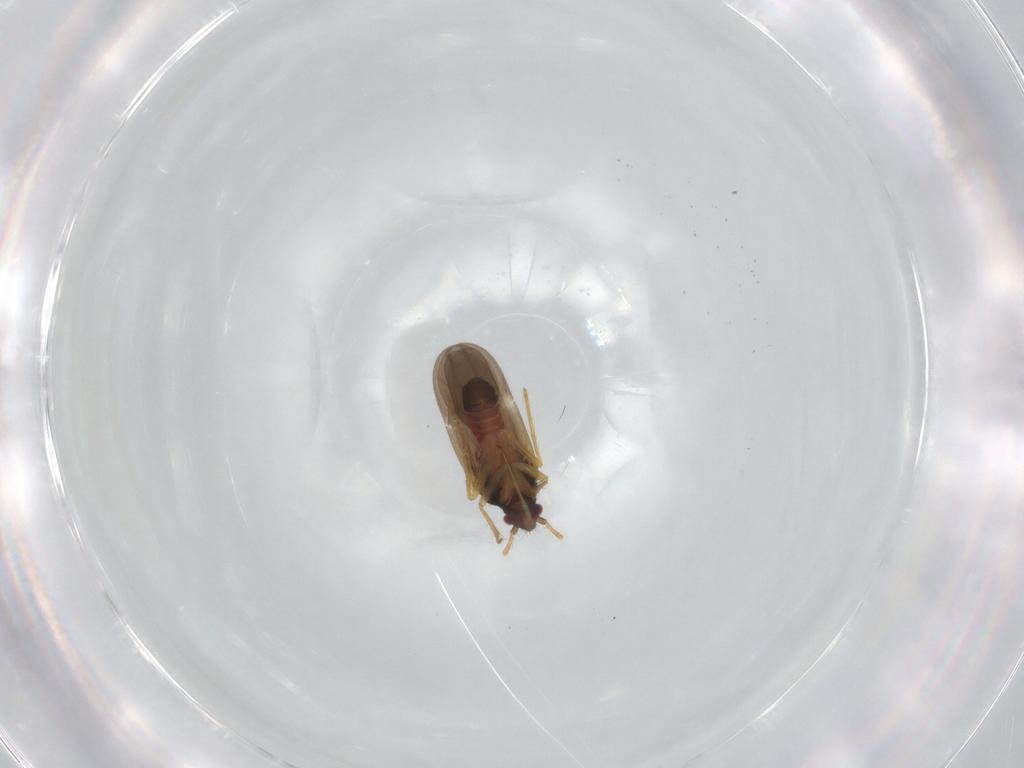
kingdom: Animalia
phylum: Arthropoda
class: Insecta
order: Hemiptera
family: Ceratocombidae
